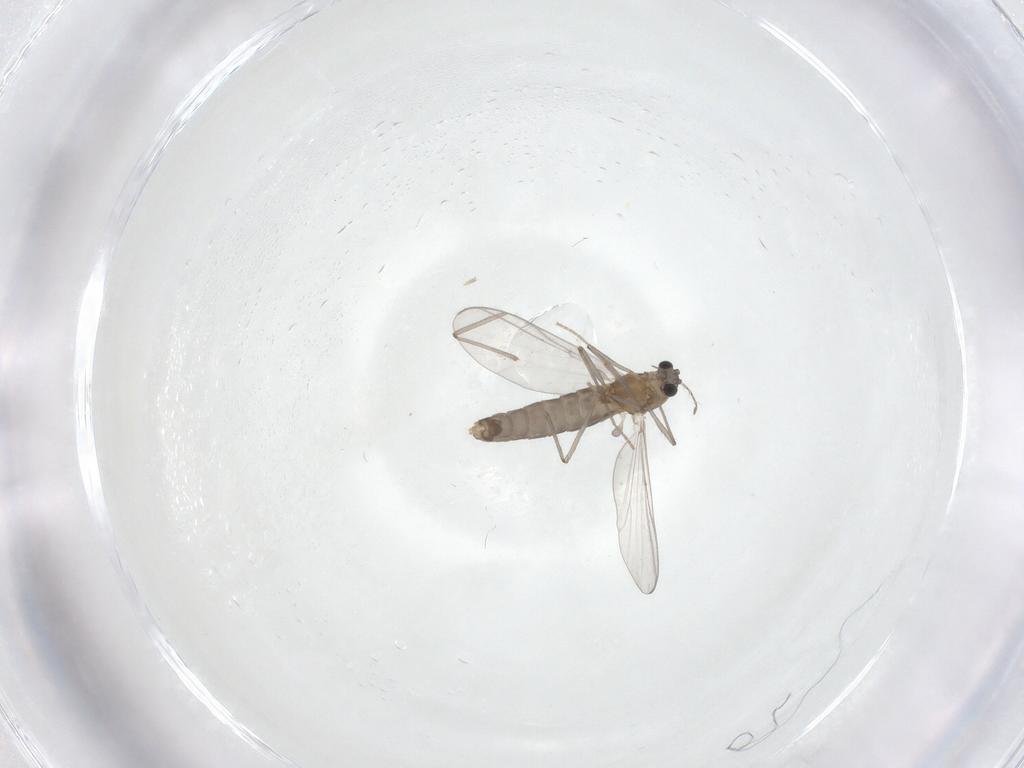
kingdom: Animalia
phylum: Arthropoda
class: Insecta
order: Diptera
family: Chironomidae
